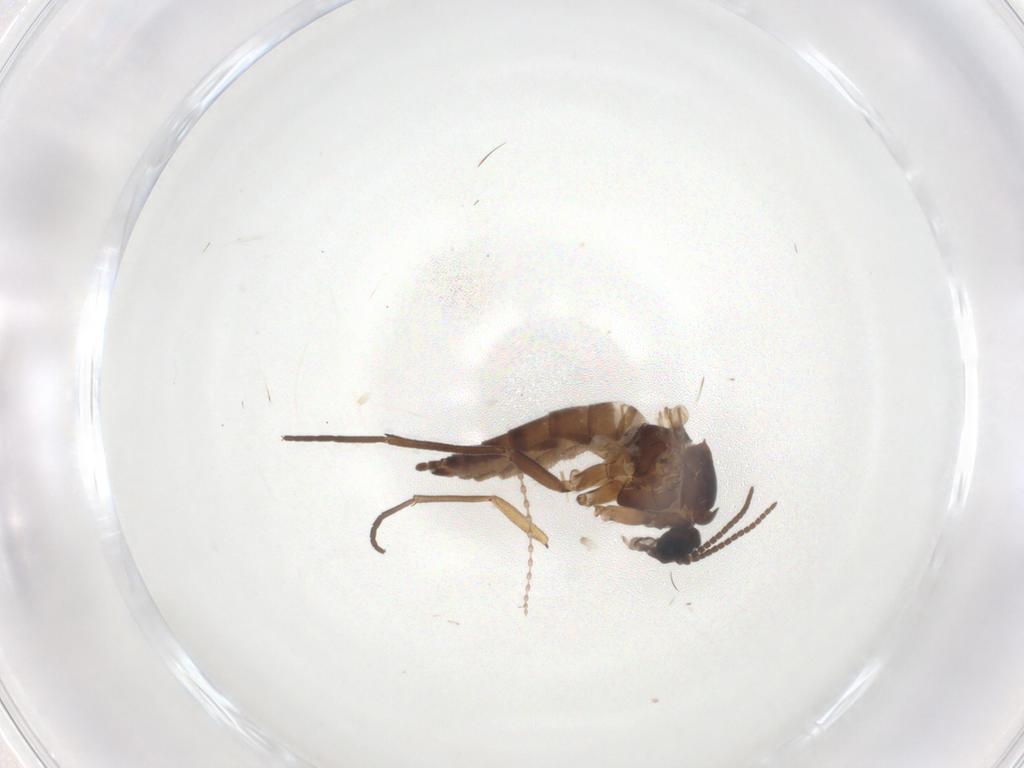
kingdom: Animalia
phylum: Arthropoda
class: Insecta
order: Diptera
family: Sciaridae
